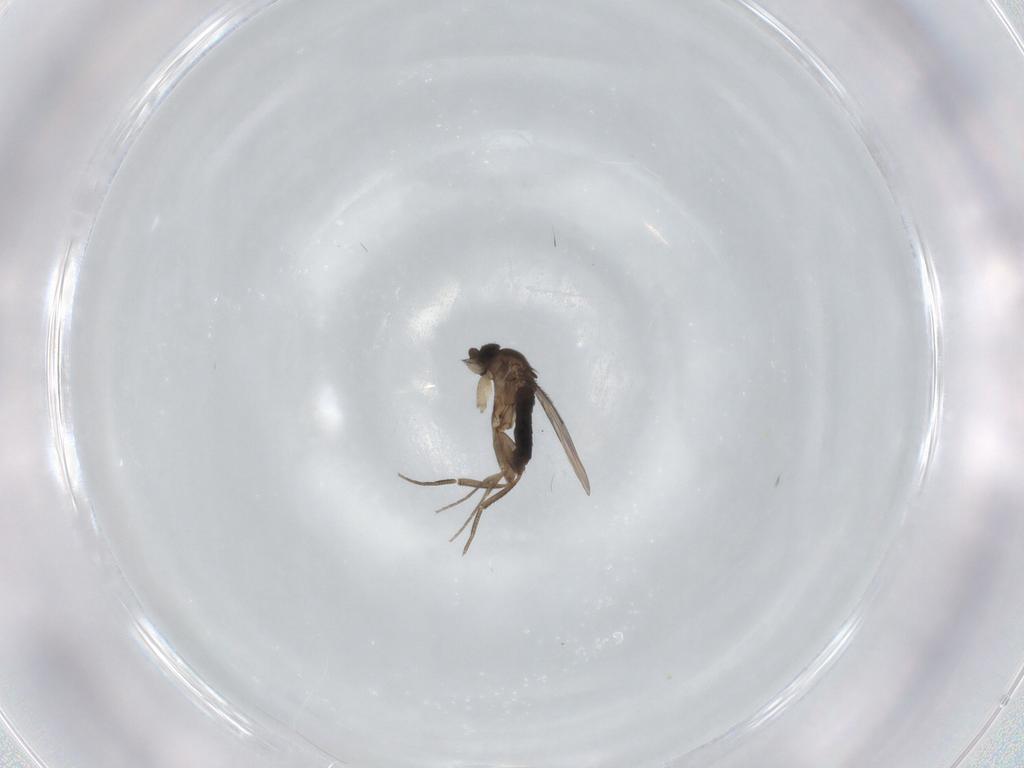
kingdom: Animalia
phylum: Arthropoda
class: Insecta
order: Diptera
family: Phoridae
